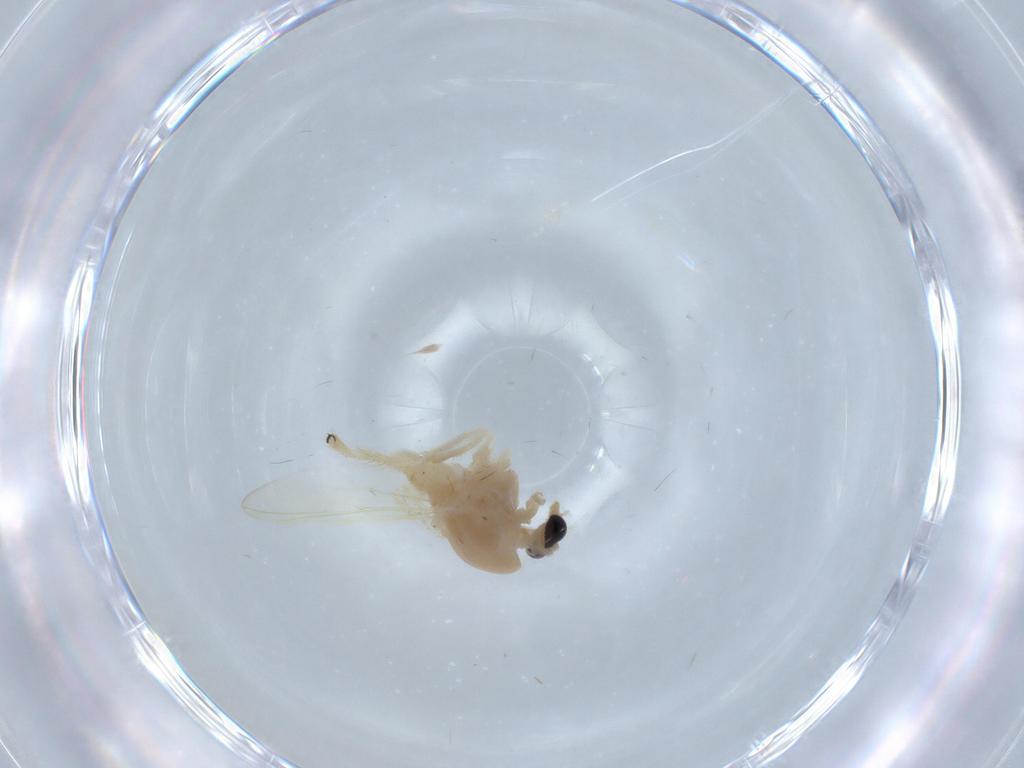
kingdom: Animalia
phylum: Arthropoda
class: Insecta
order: Diptera
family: Chironomidae
